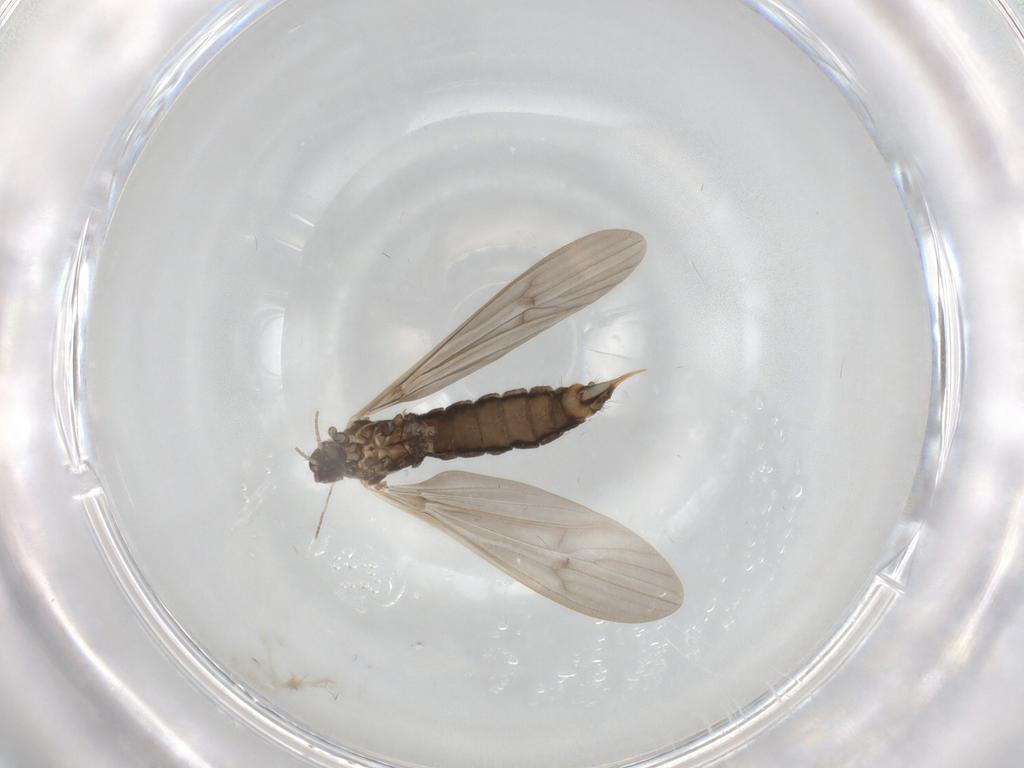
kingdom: Animalia
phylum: Arthropoda
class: Insecta
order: Diptera
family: Limoniidae
